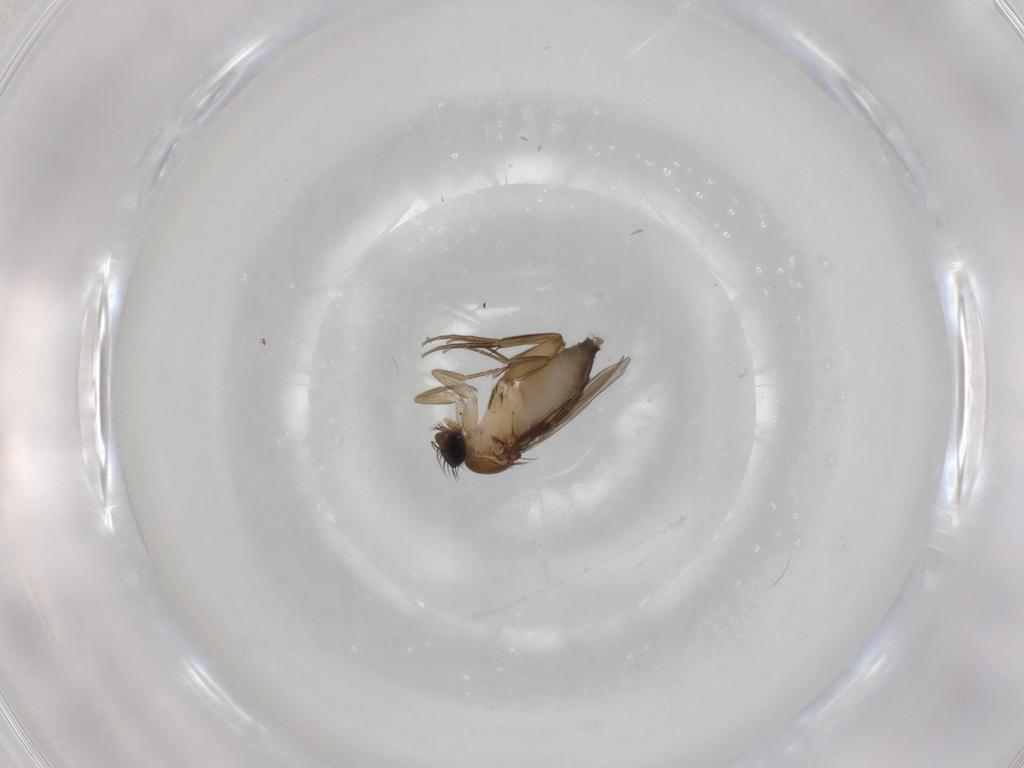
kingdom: Animalia
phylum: Arthropoda
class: Insecta
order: Diptera
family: Phoridae
